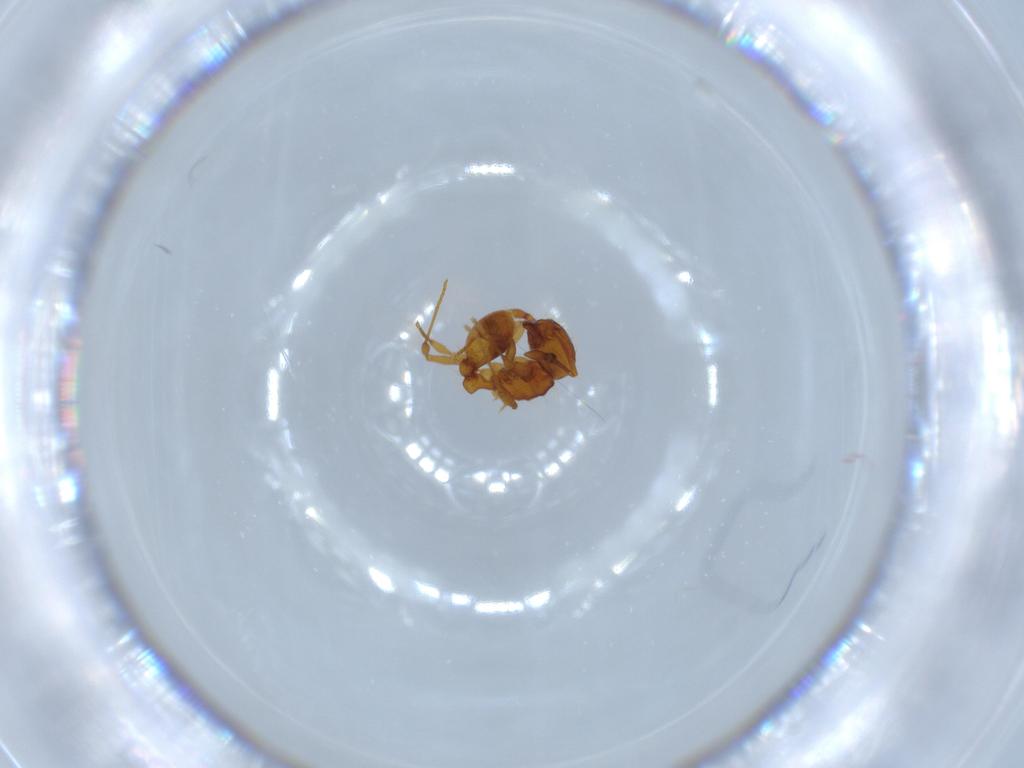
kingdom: Animalia
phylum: Arthropoda
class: Insecta
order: Hymenoptera
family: Formicidae
